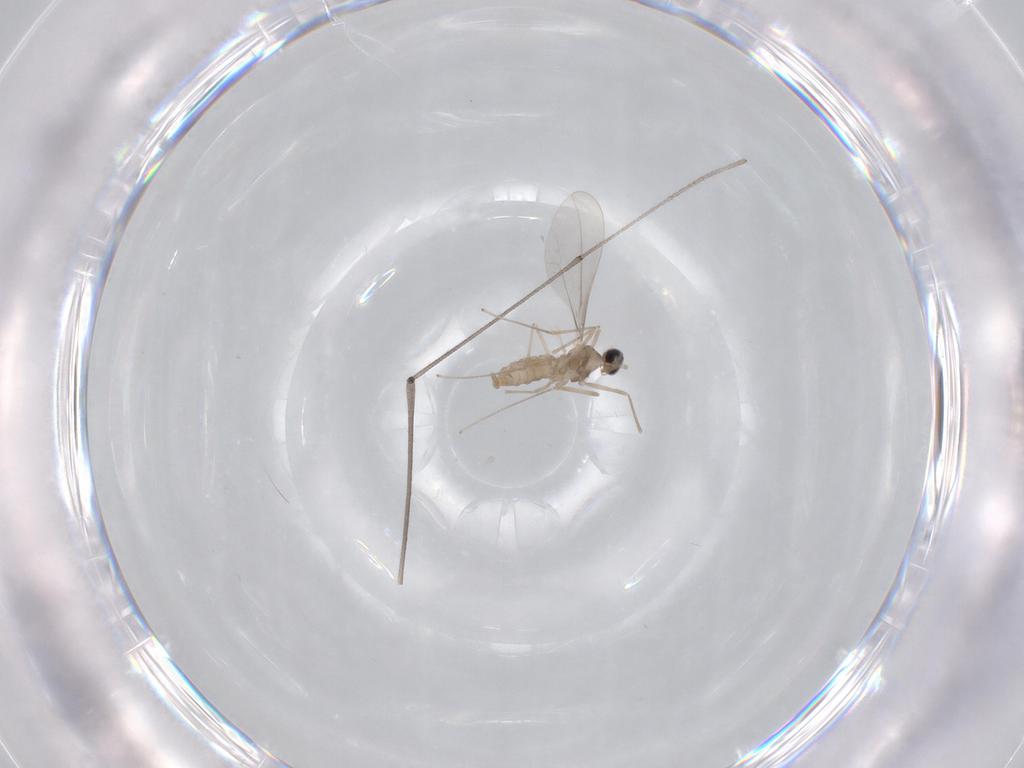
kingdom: Animalia
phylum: Arthropoda
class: Insecta
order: Diptera
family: Cecidomyiidae
